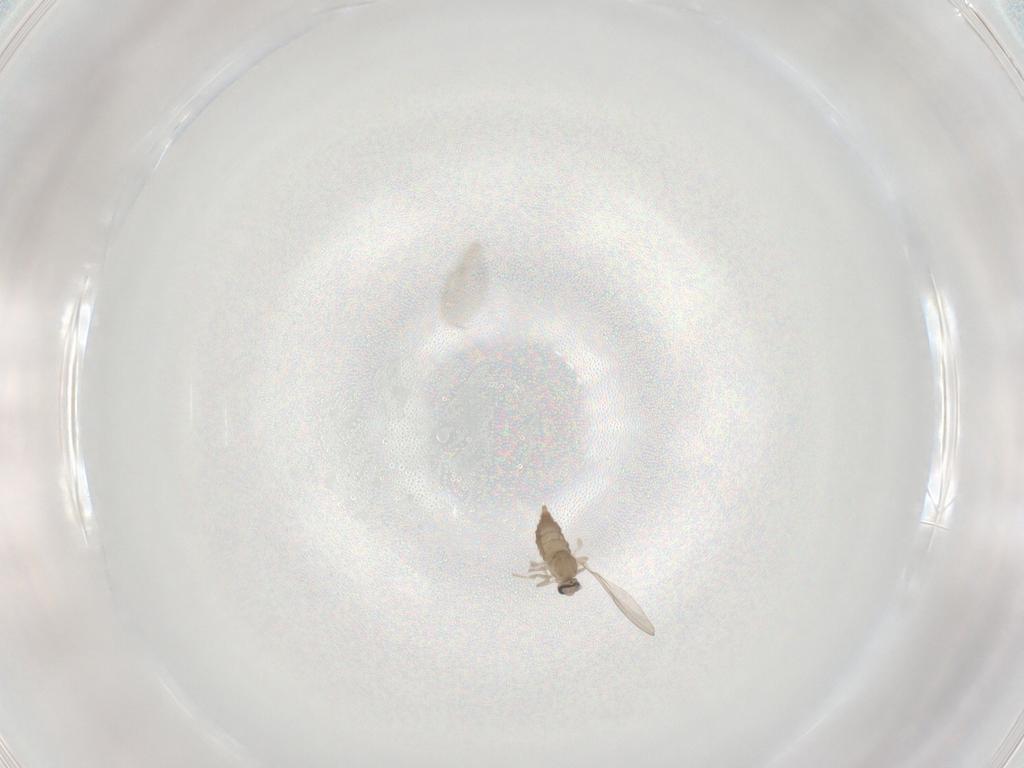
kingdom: Animalia
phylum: Arthropoda
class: Insecta
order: Diptera
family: Cecidomyiidae
